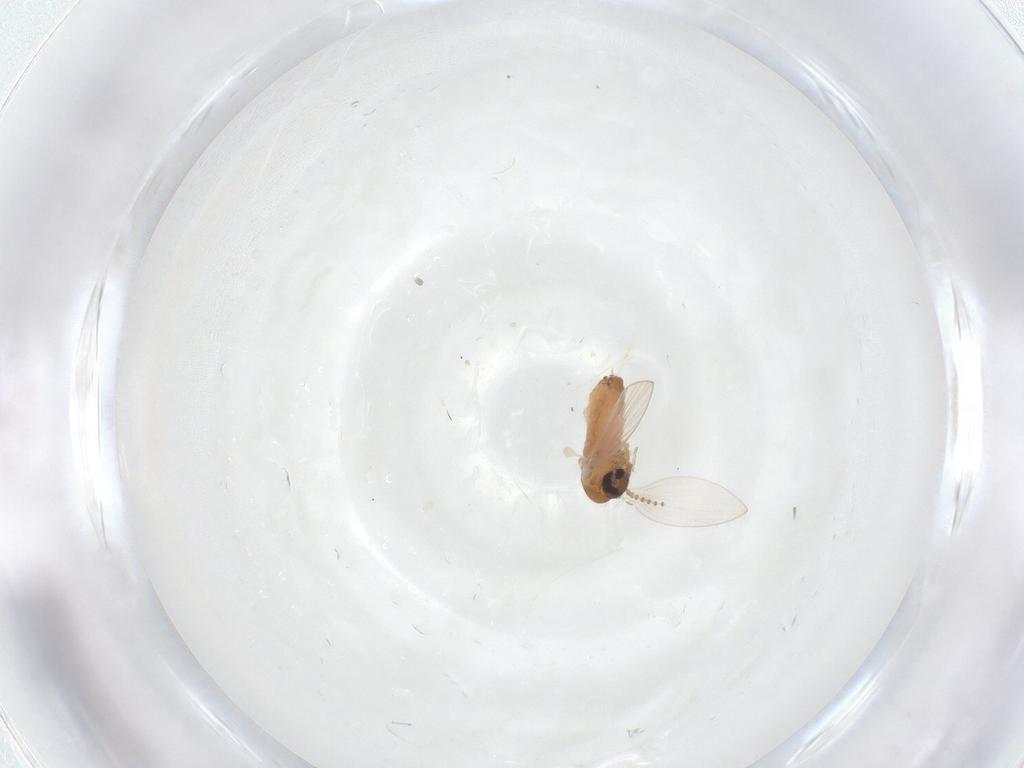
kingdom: Animalia
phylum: Arthropoda
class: Insecta
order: Diptera
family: Psychodidae
